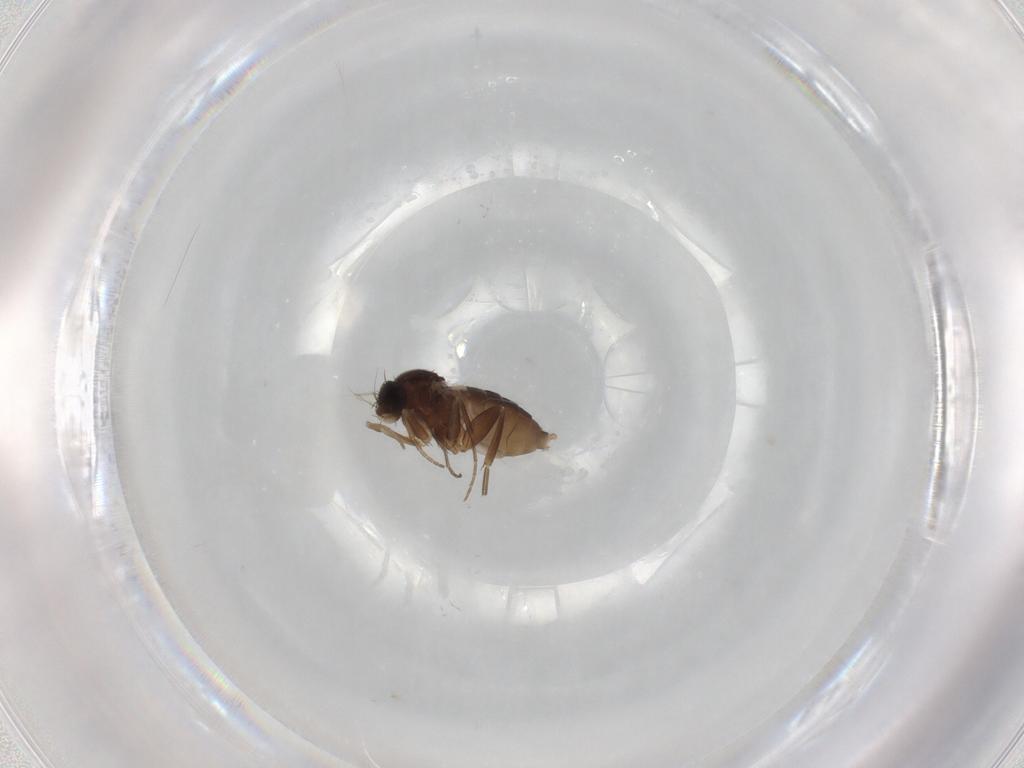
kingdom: Animalia
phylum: Arthropoda
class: Insecta
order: Diptera
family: Phoridae
